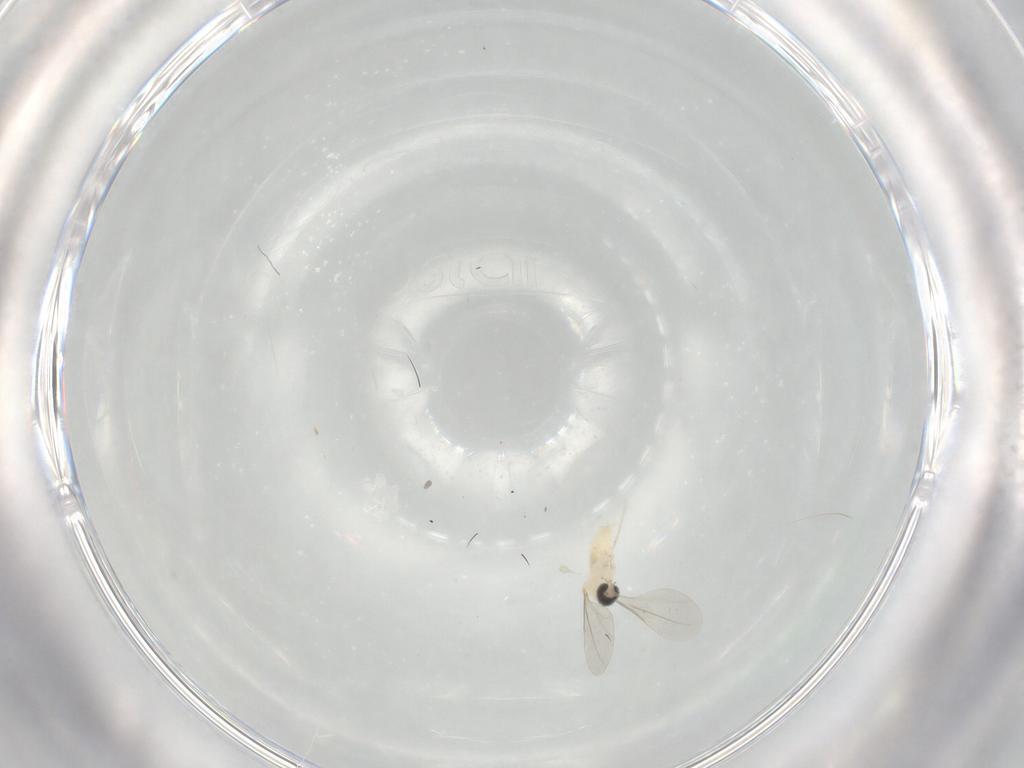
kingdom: Animalia
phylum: Arthropoda
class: Insecta
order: Diptera
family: Cecidomyiidae
